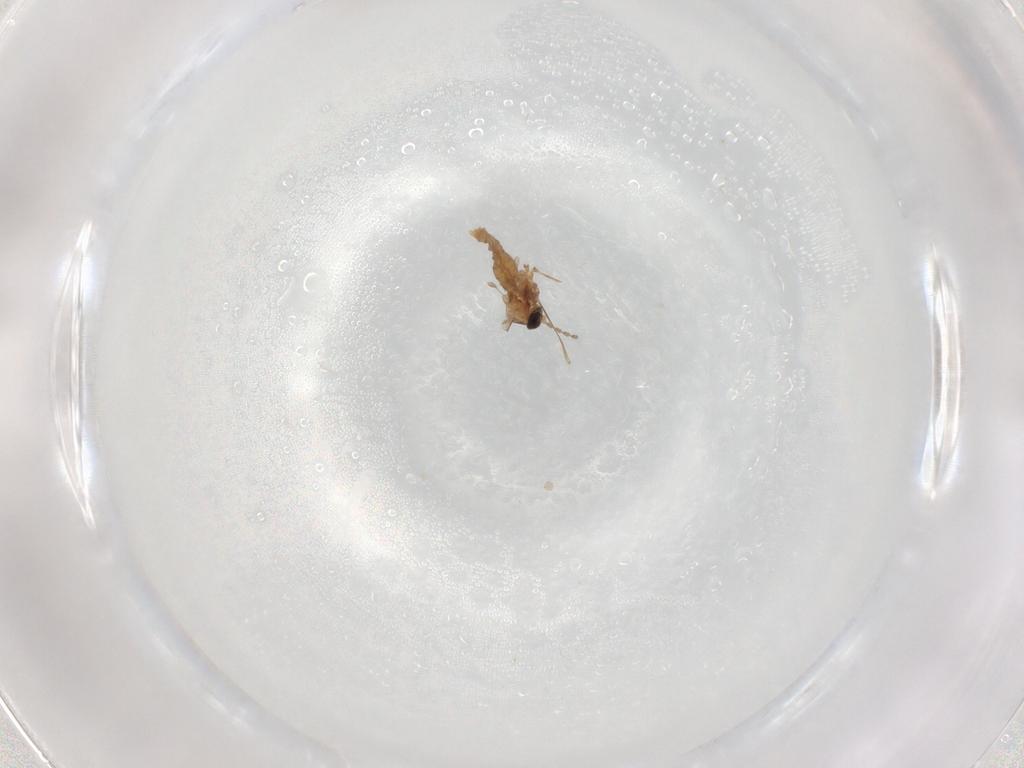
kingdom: Animalia
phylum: Arthropoda
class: Insecta
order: Diptera
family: Cecidomyiidae
